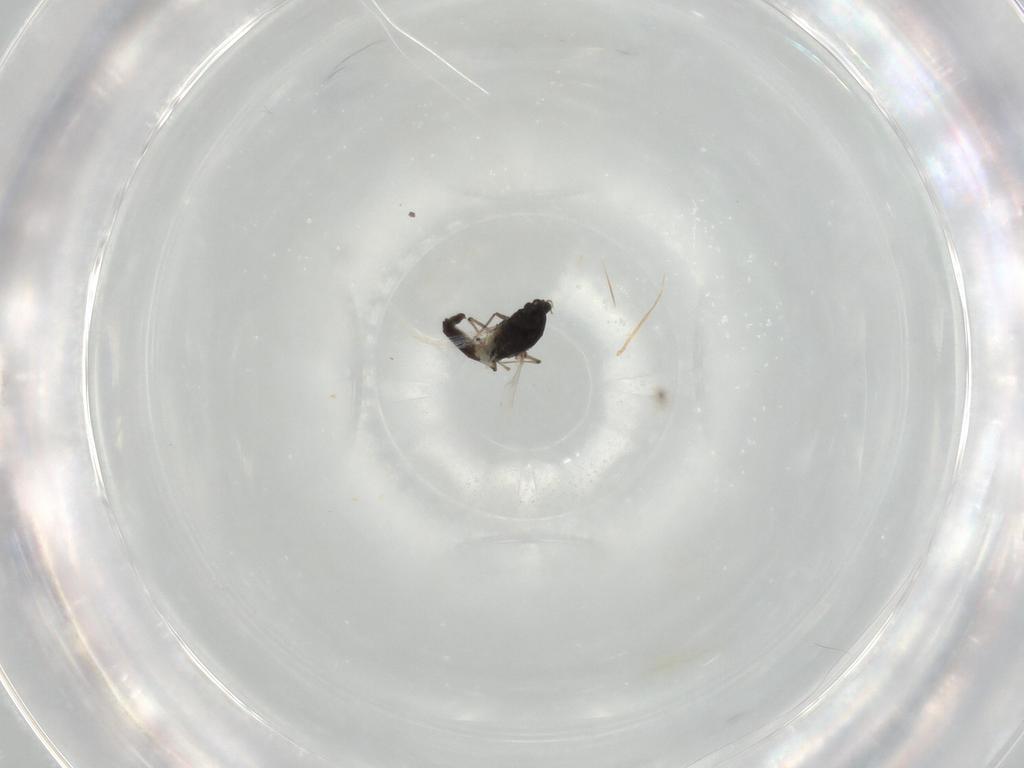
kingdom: Animalia
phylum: Arthropoda
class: Insecta
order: Diptera
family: Chironomidae
